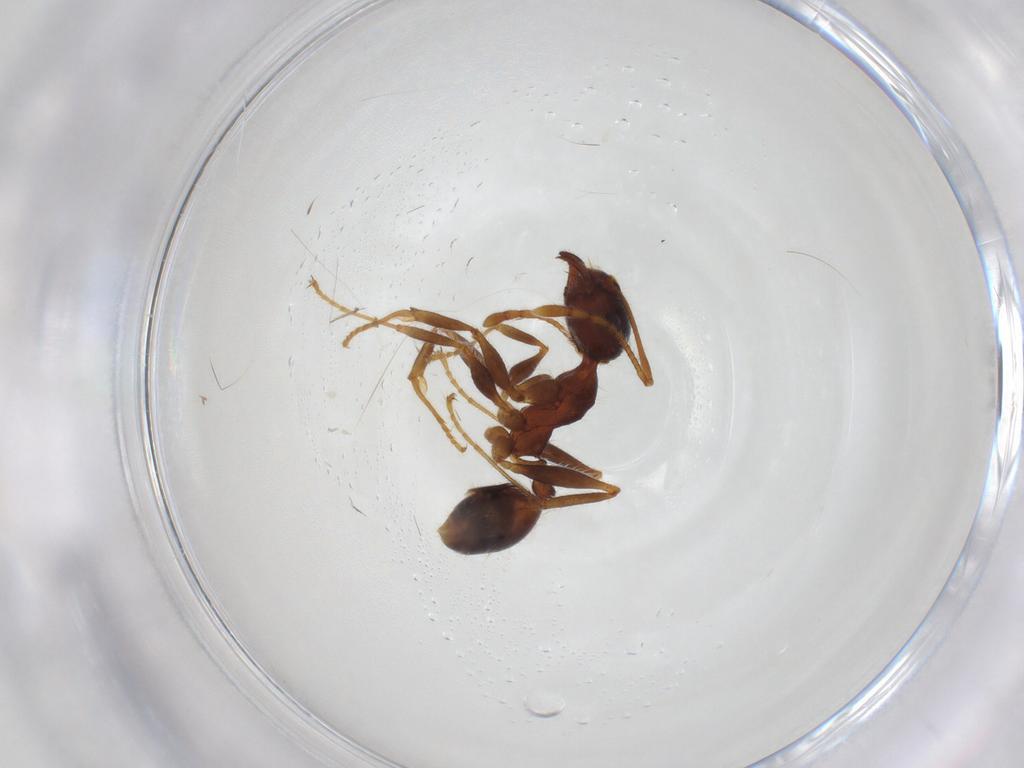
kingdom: Animalia
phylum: Arthropoda
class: Insecta
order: Hymenoptera
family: Formicidae
